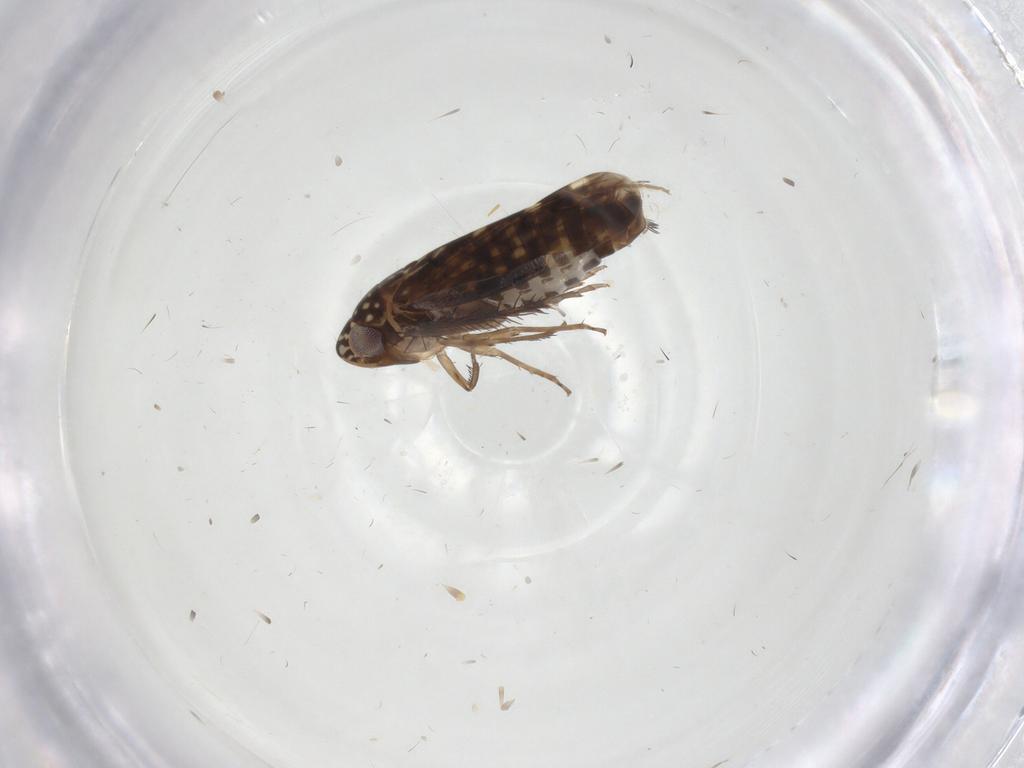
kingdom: Animalia
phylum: Arthropoda
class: Insecta
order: Hemiptera
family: Cicadellidae
